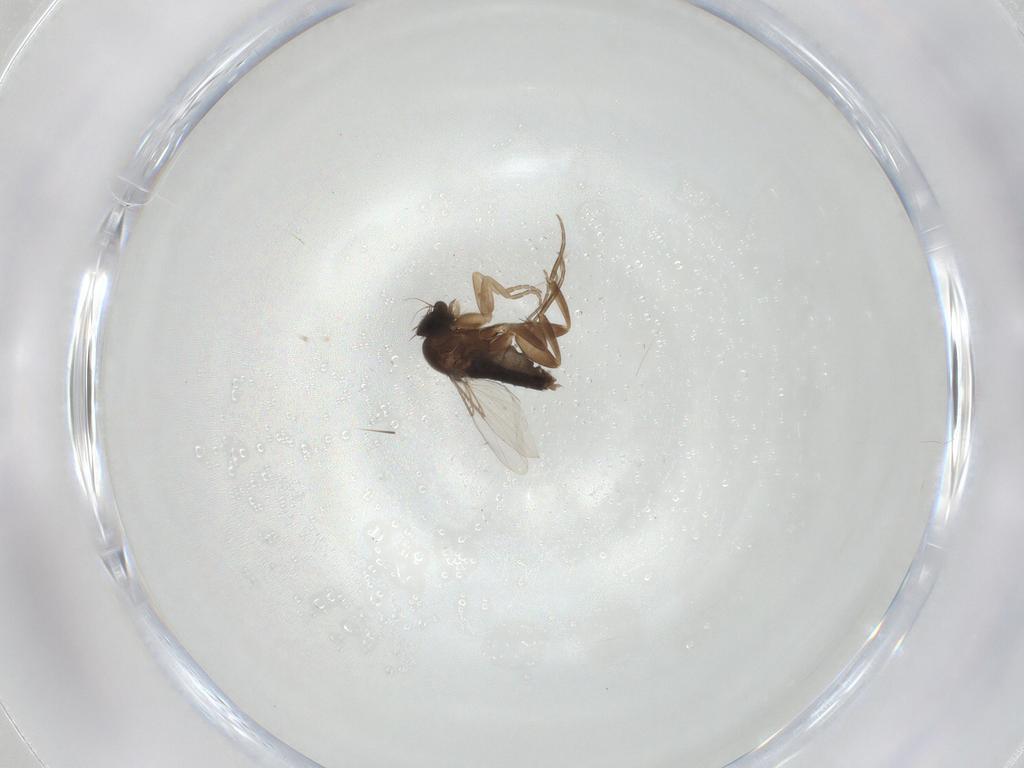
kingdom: Animalia
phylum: Arthropoda
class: Insecta
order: Diptera
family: Phoridae
